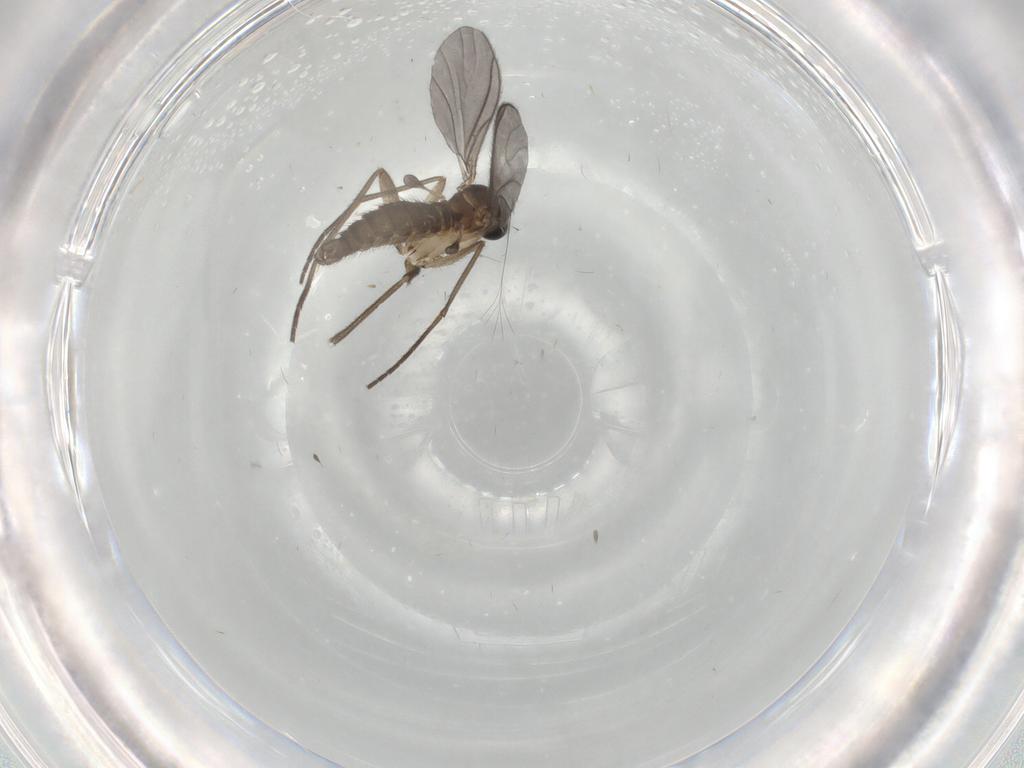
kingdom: Animalia
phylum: Arthropoda
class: Insecta
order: Diptera
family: Sciaridae
